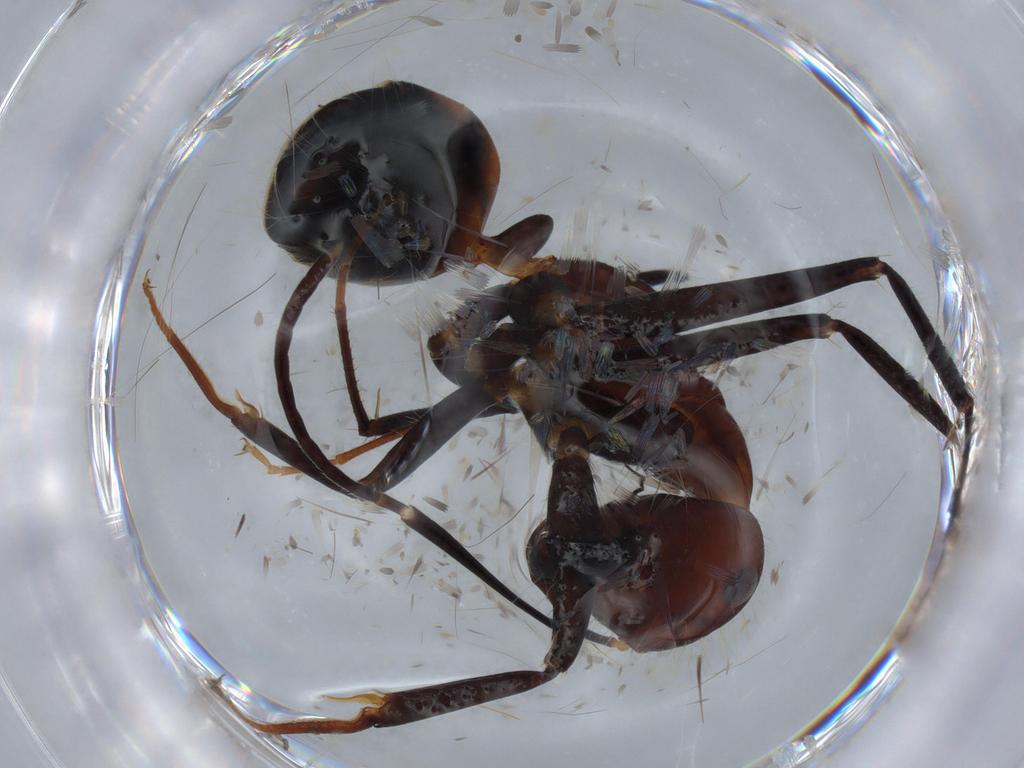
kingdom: Animalia
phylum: Arthropoda
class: Insecta
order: Hymenoptera
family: Formicidae
